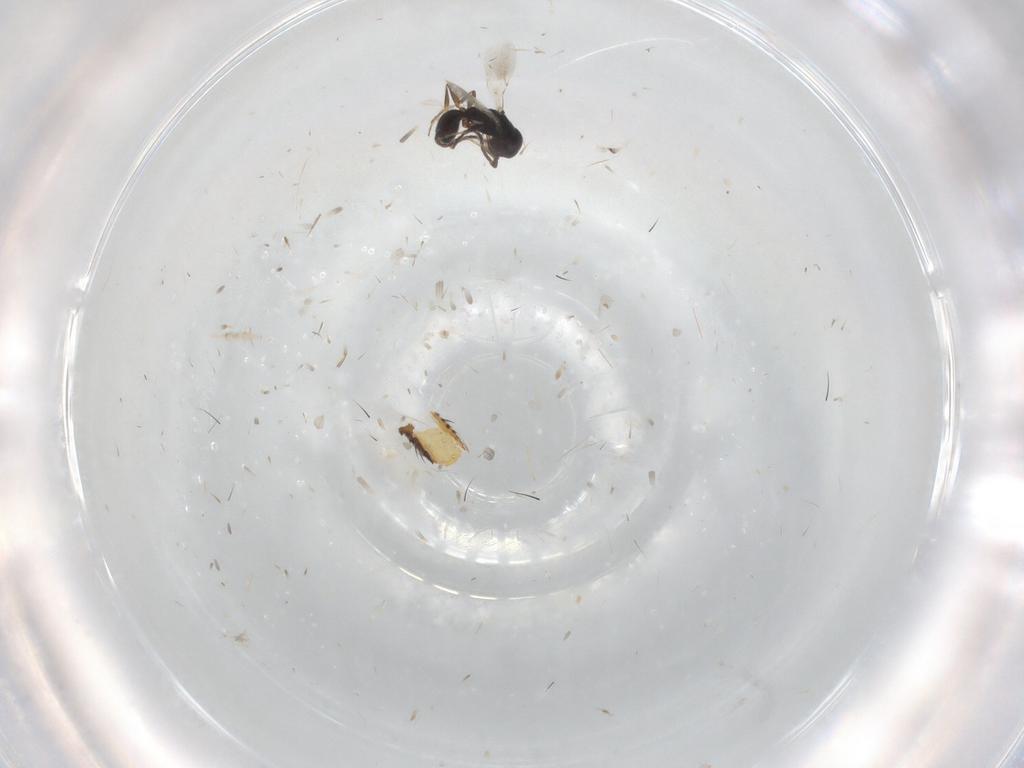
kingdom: Animalia
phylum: Arthropoda
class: Insecta
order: Hymenoptera
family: Bethylidae
